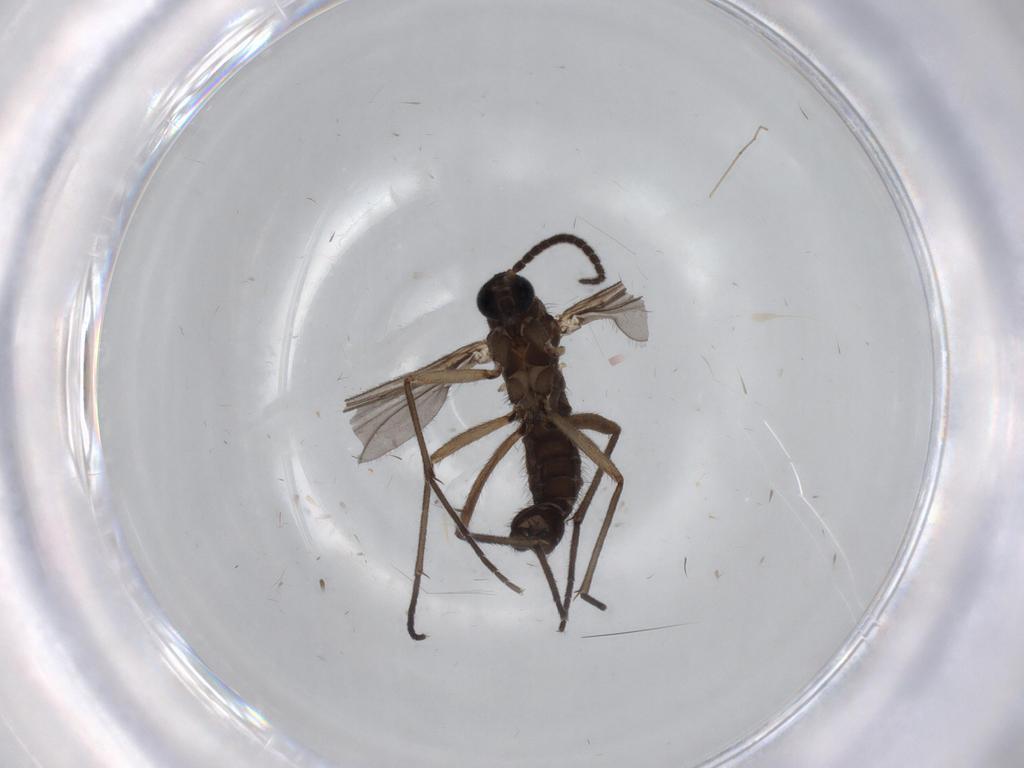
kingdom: Animalia
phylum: Arthropoda
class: Insecta
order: Diptera
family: Sciaridae
